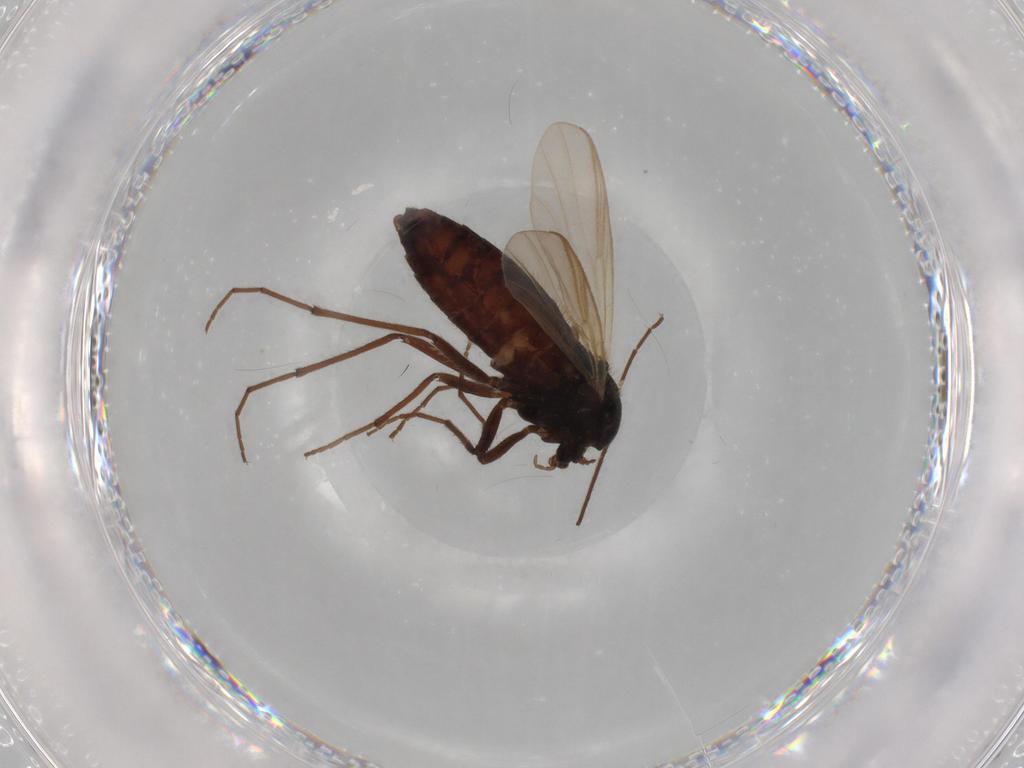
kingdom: Animalia
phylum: Arthropoda
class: Insecta
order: Diptera
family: Sphaeroceridae
